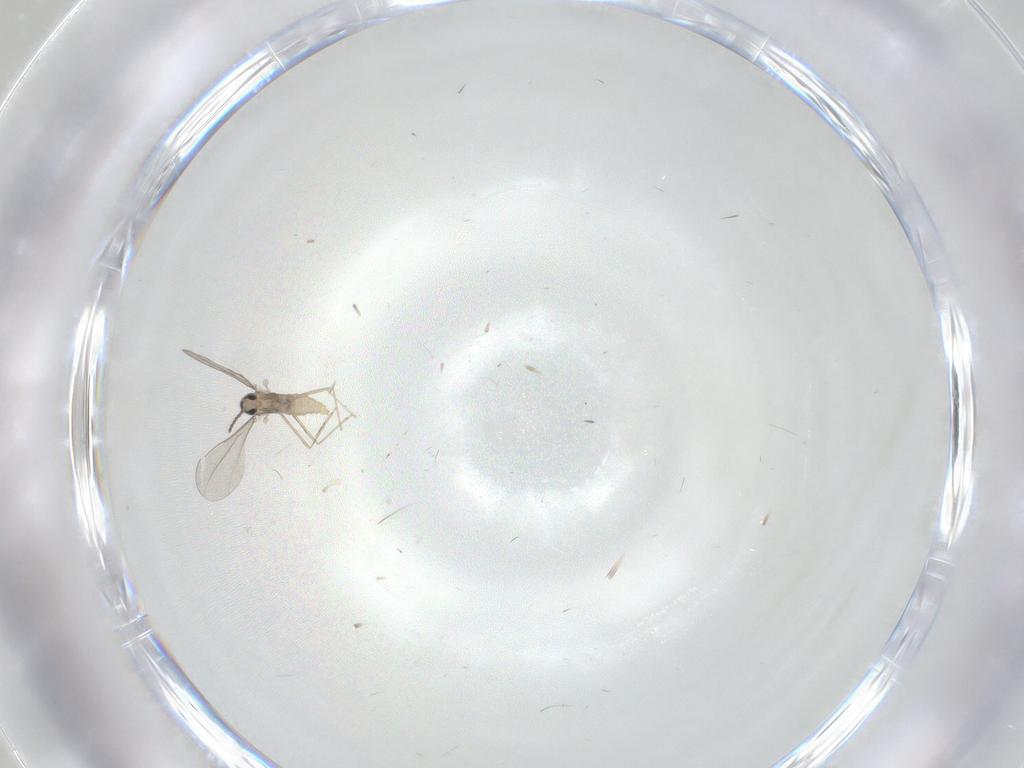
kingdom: Animalia
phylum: Arthropoda
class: Insecta
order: Diptera
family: Cecidomyiidae
